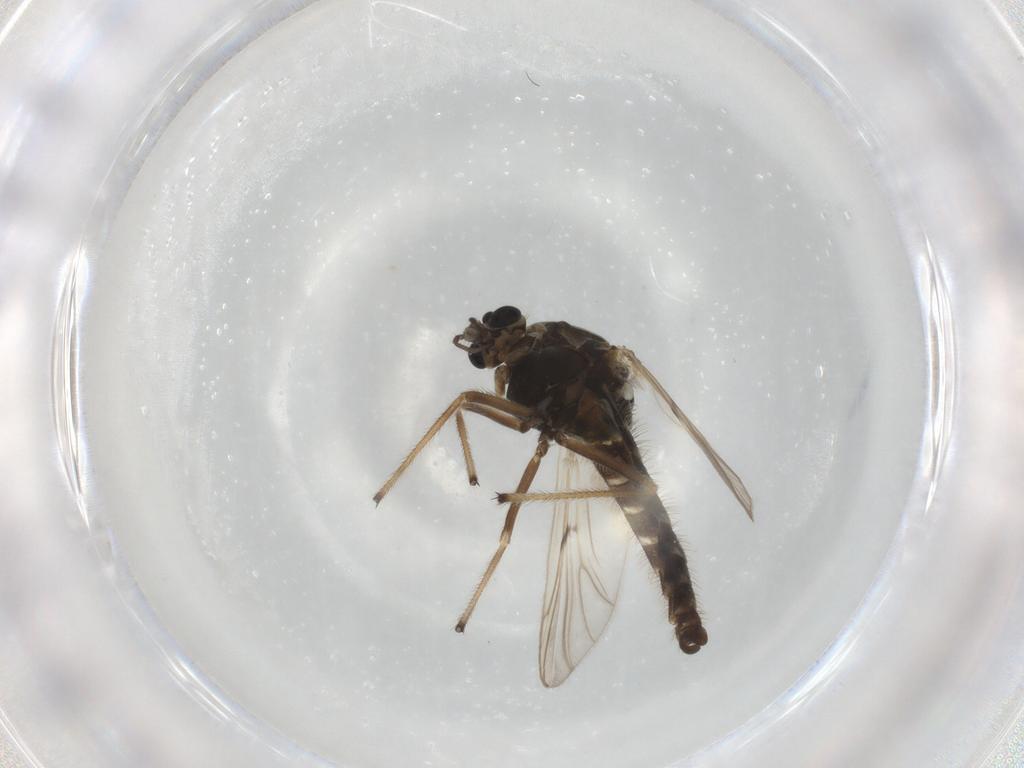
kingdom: Animalia
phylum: Arthropoda
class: Insecta
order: Diptera
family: Chironomidae
